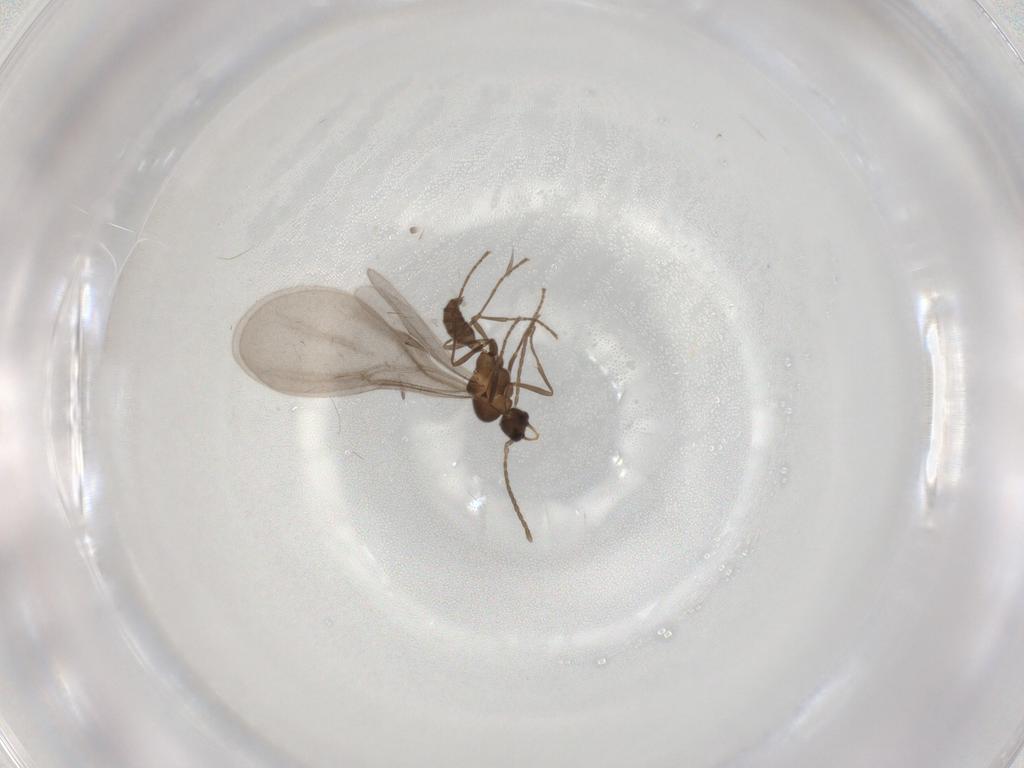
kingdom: Animalia
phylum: Arthropoda
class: Insecta
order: Hymenoptera
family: Formicidae
